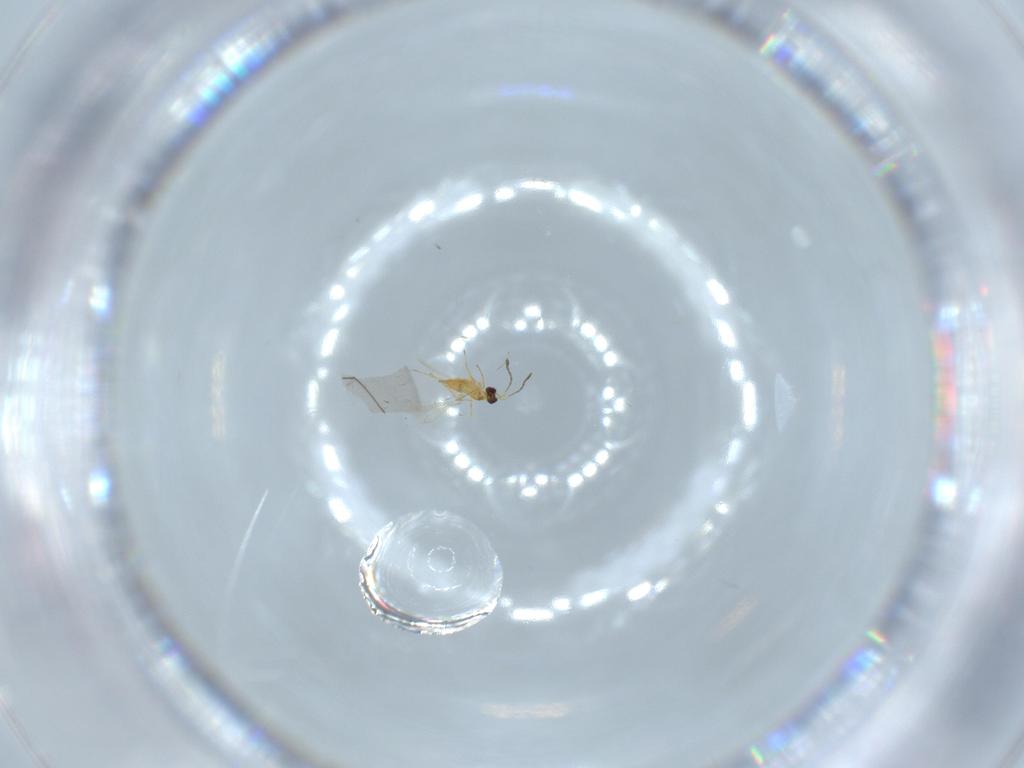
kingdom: Animalia
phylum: Arthropoda
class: Insecta
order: Hymenoptera
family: Mymaridae
